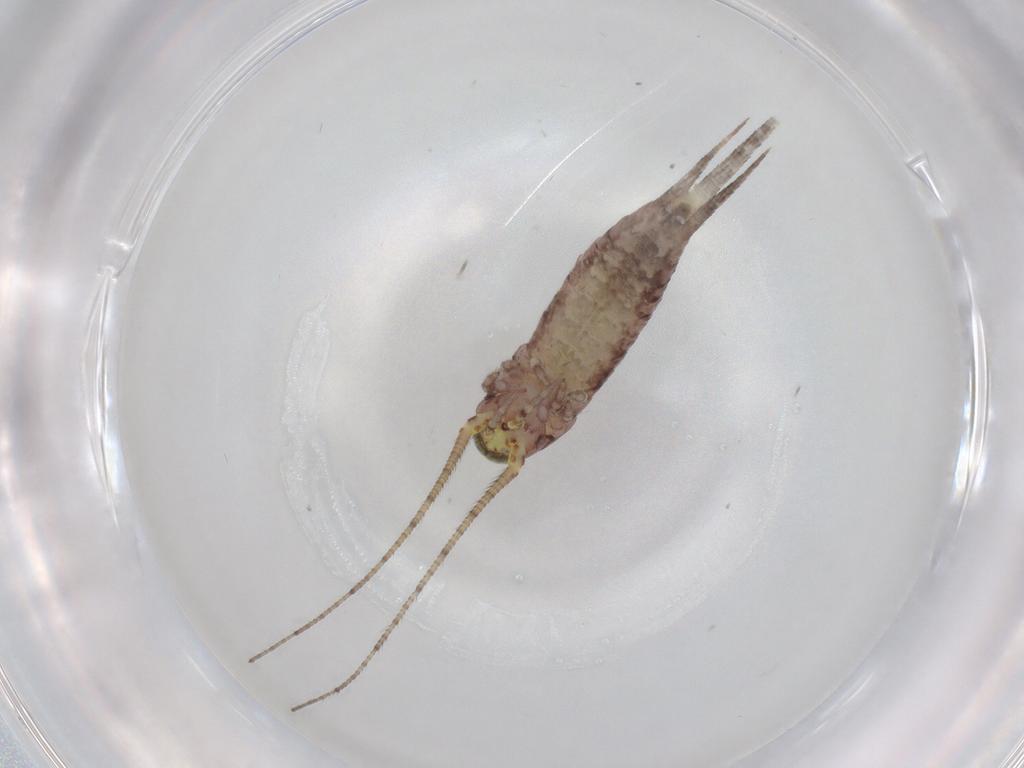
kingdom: Animalia
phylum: Arthropoda
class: Insecta
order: Archaeognatha
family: Machilidae
